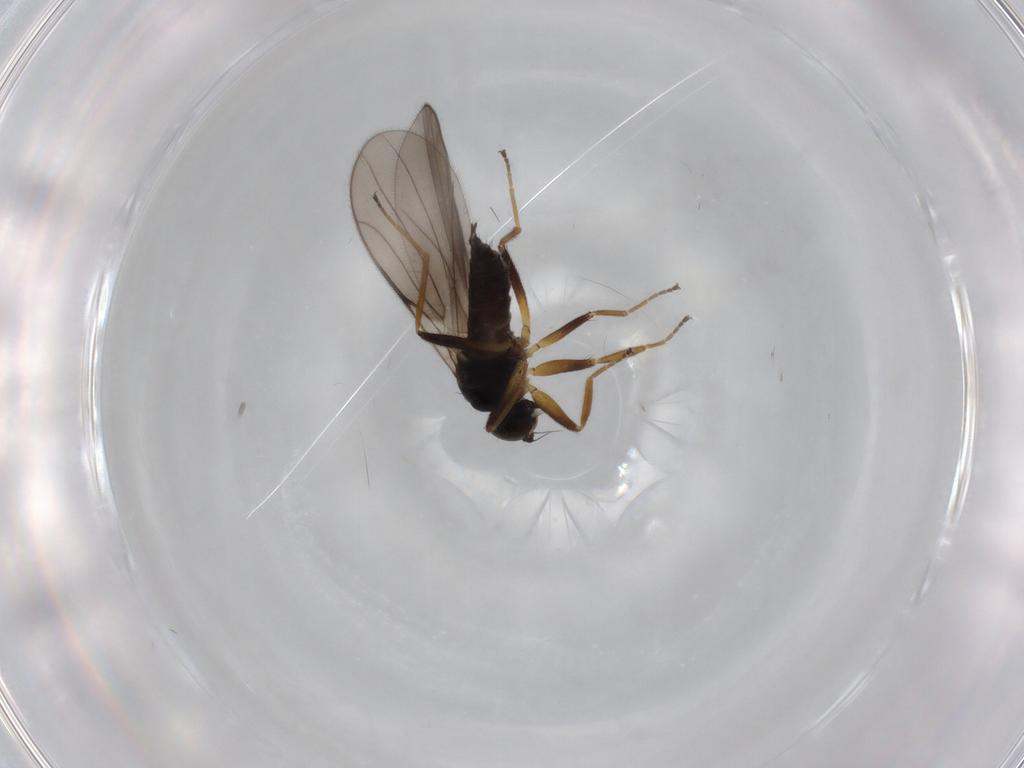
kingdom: Animalia
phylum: Arthropoda
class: Insecta
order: Diptera
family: Hybotidae
